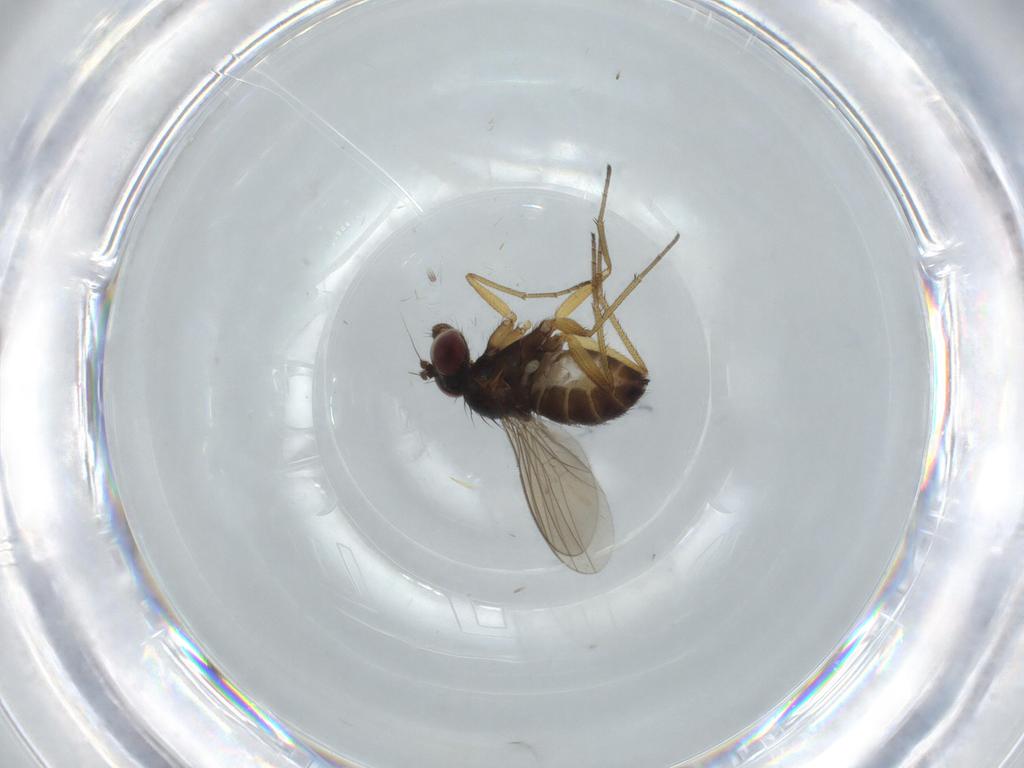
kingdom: Animalia
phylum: Arthropoda
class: Insecta
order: Diptera
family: Dolichopodidae
